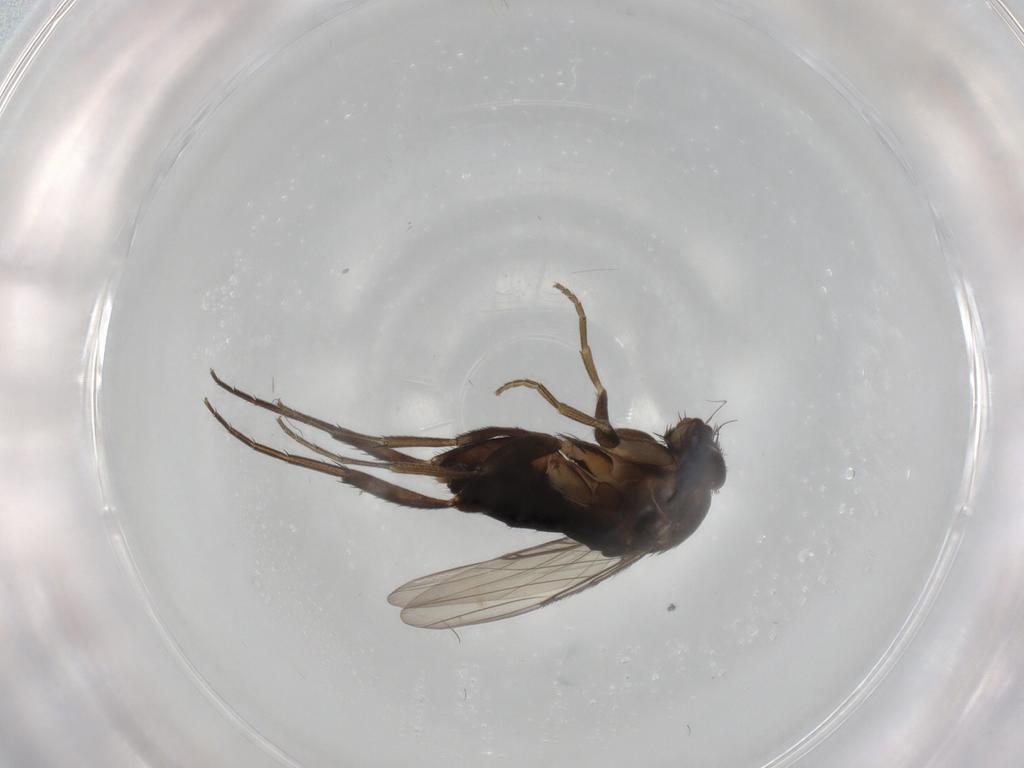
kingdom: Animalia
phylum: Arthropoda
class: Insecta
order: Diptera
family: Phoridae
